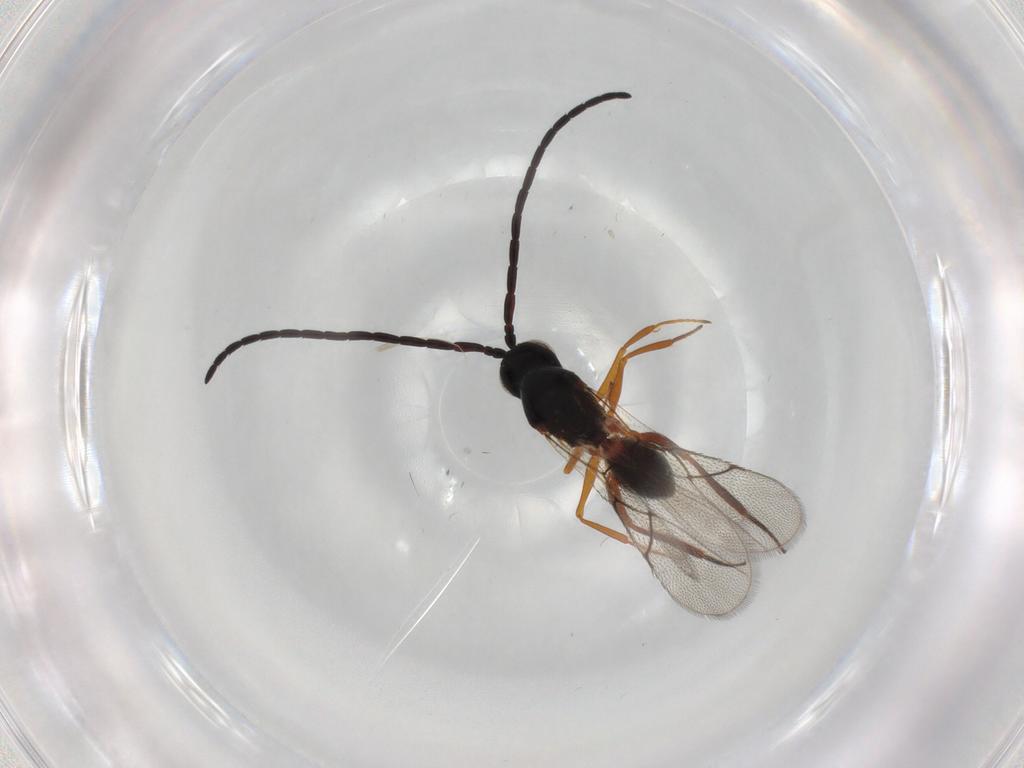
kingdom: Animalia
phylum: Arthropoda
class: Insecta
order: Hymenoptera
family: Figitidae
